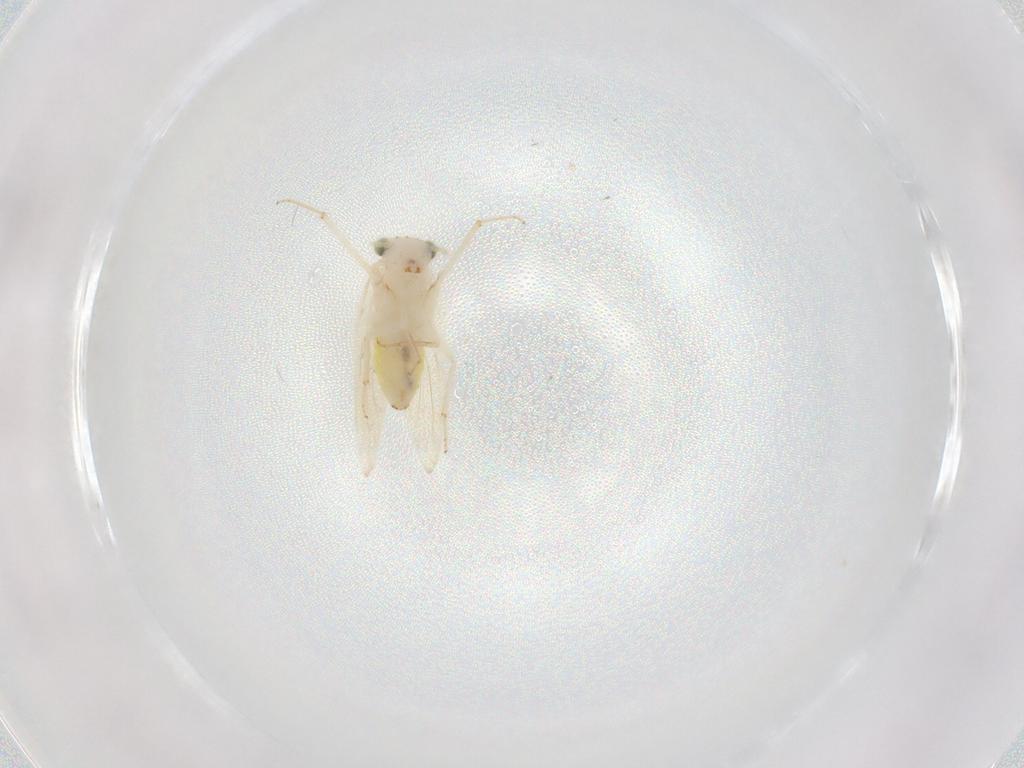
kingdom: Animalia
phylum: Arthropoda
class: Insecta
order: Psocodea
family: Lepidopsocidae
